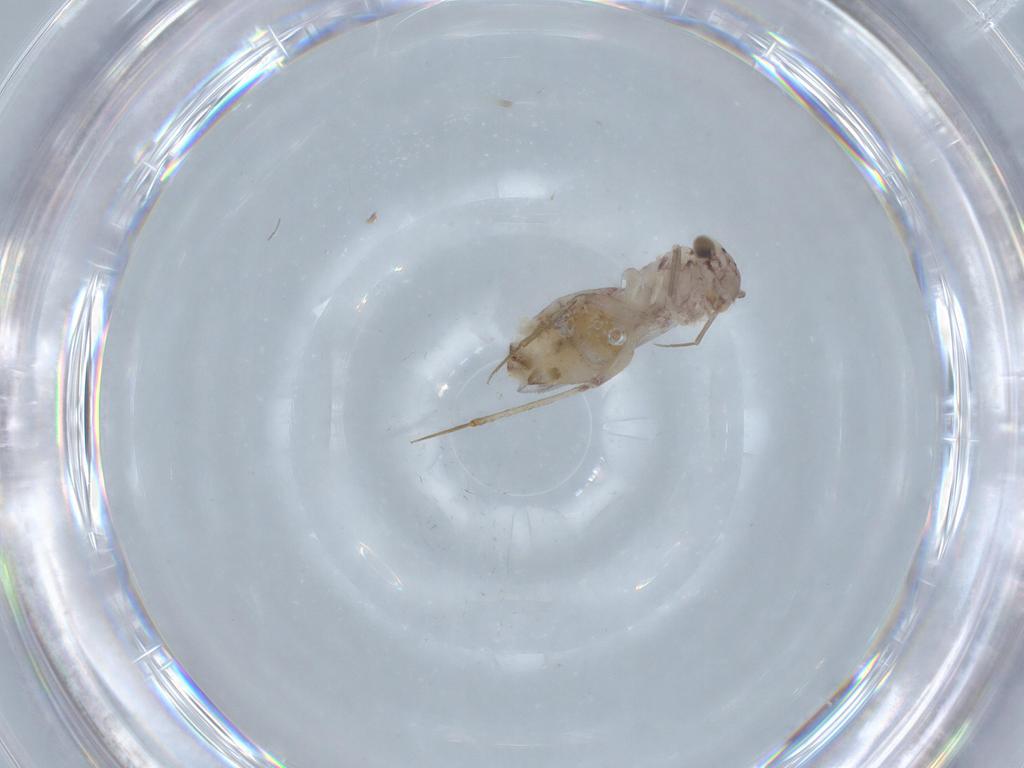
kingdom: Animalia
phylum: Arthropoda
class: Insecta
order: Psocodea
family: Lepidopsocidae
